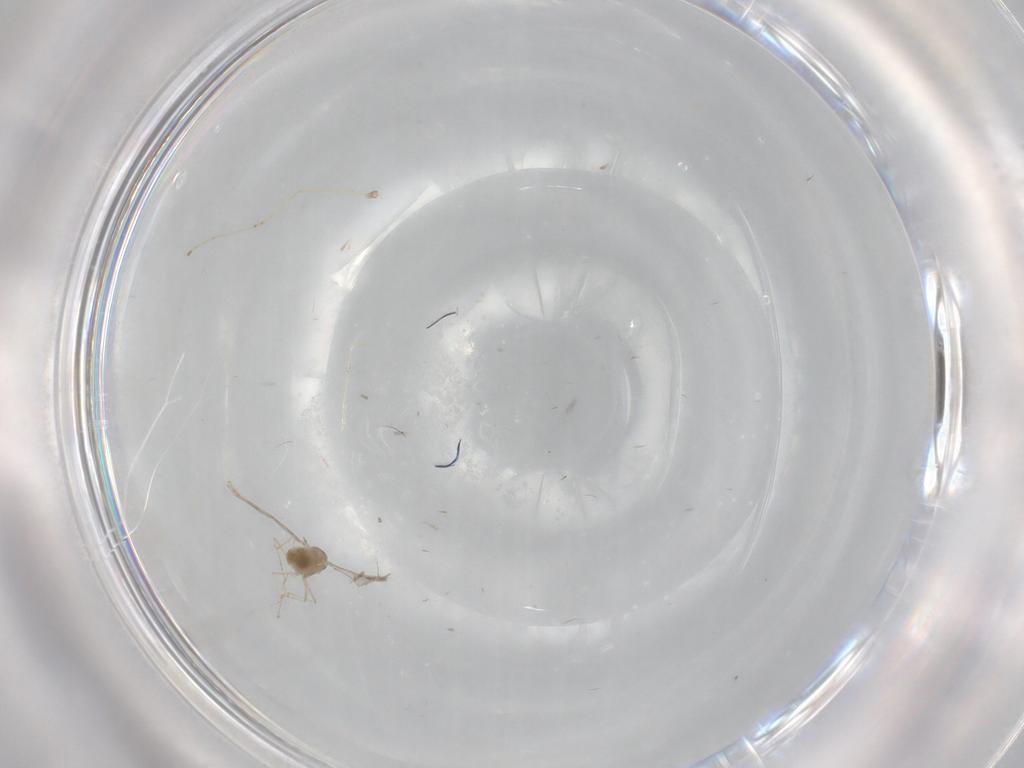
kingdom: Animalia
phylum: Arthropoda
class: Insecta
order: Diptera
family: Cecidomyiidae
